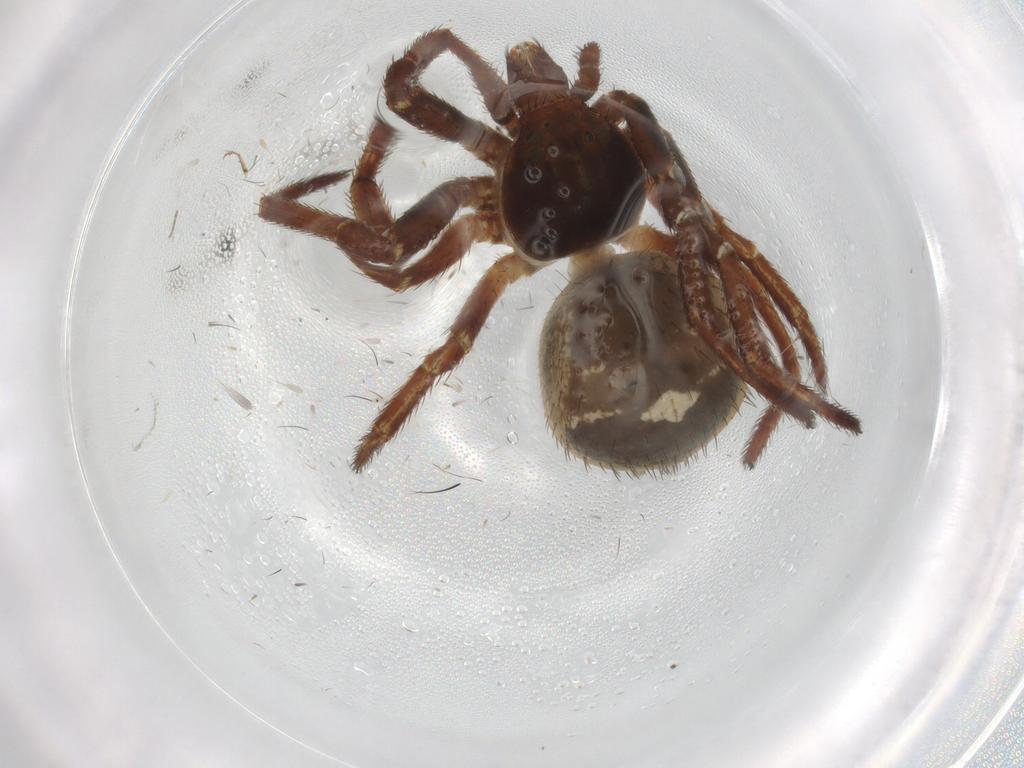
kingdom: Animalia
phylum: Arthropoda
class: Arachnida
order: Araneae
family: Thomisidae
